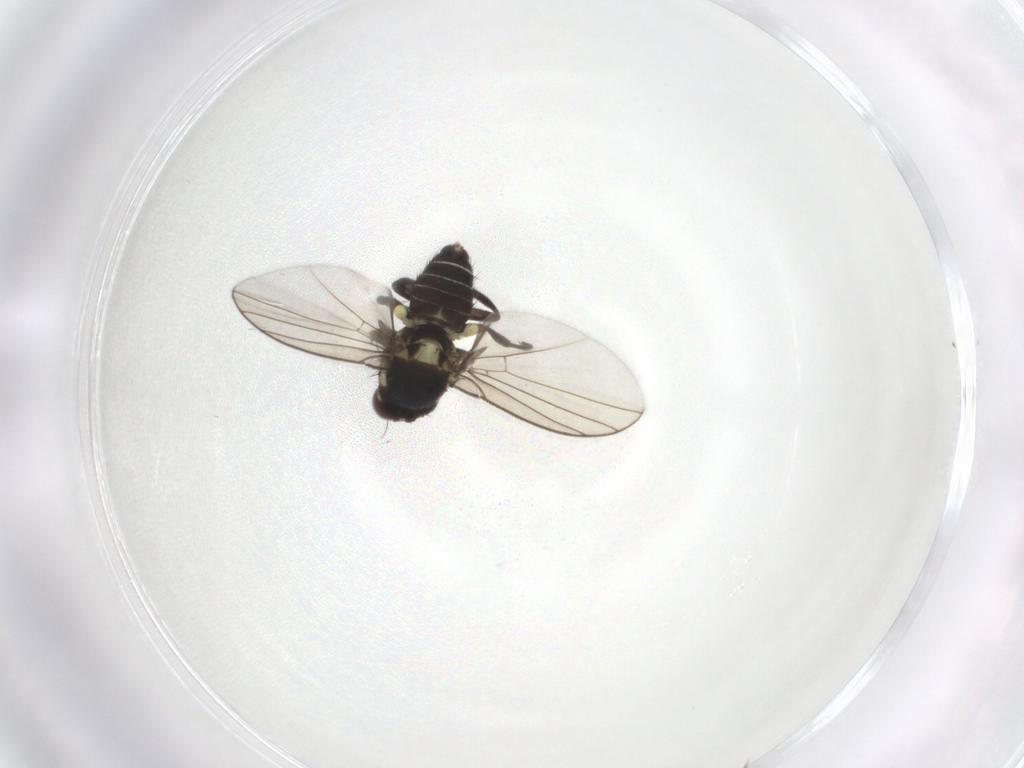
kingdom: Animalia
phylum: Arthropoda
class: Insecta
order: Diptera
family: Agromyzidae
